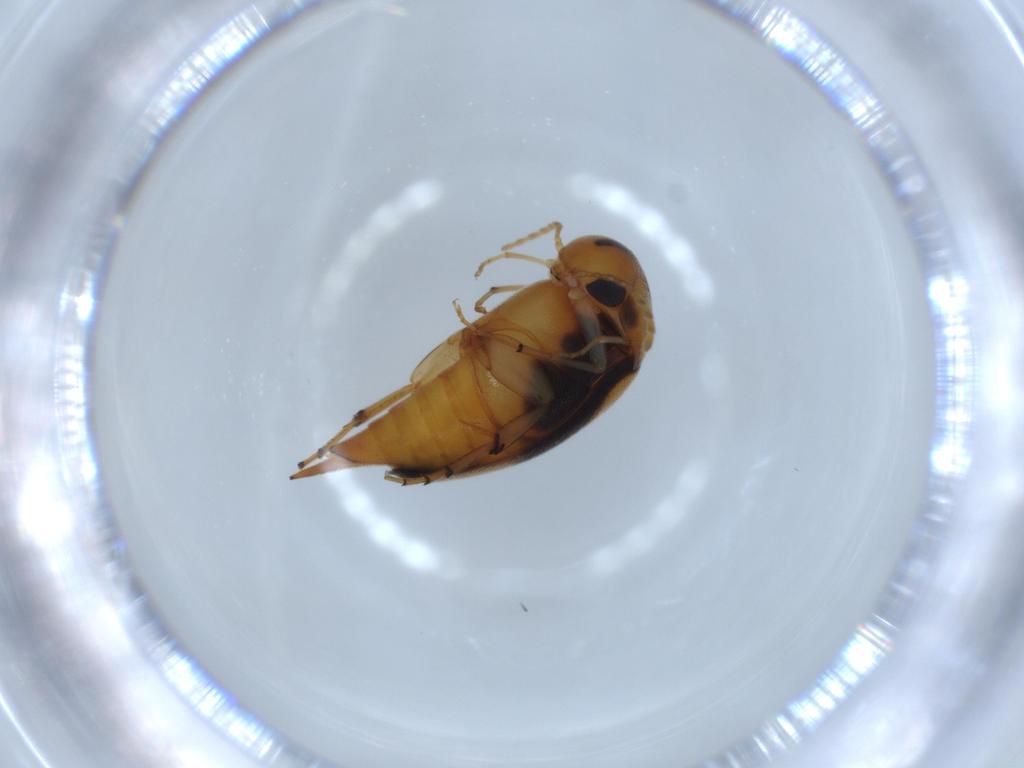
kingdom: Animalia
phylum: Arthropoda
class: Insecta
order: Coleoptera
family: Mordellidae
